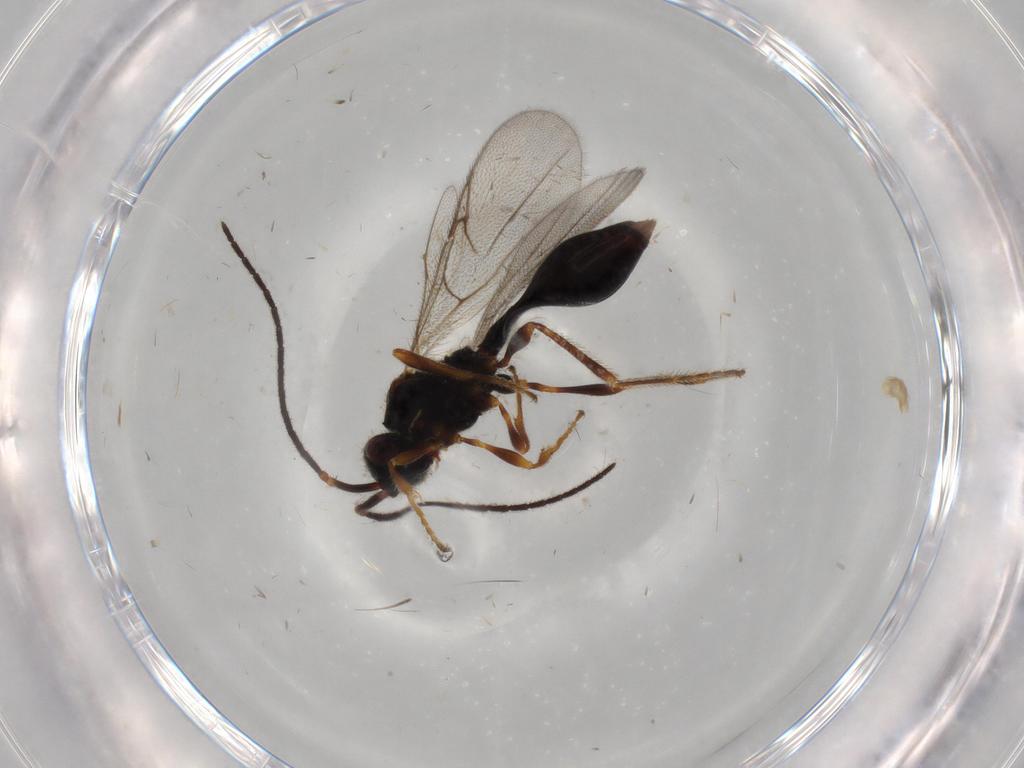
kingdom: Animalia
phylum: Arthropoda
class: Insecta
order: Hymenoptera
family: Diapriidae
